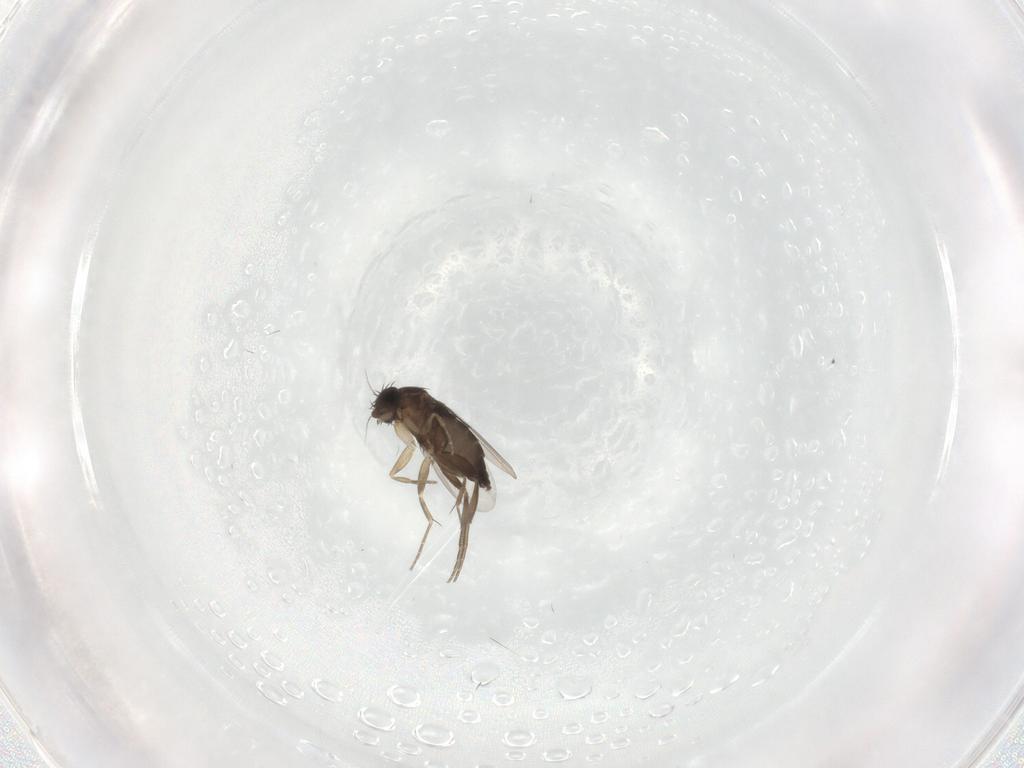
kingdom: Animalia
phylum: Arthropoda
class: Insecta
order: Diptera
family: Phoridae
